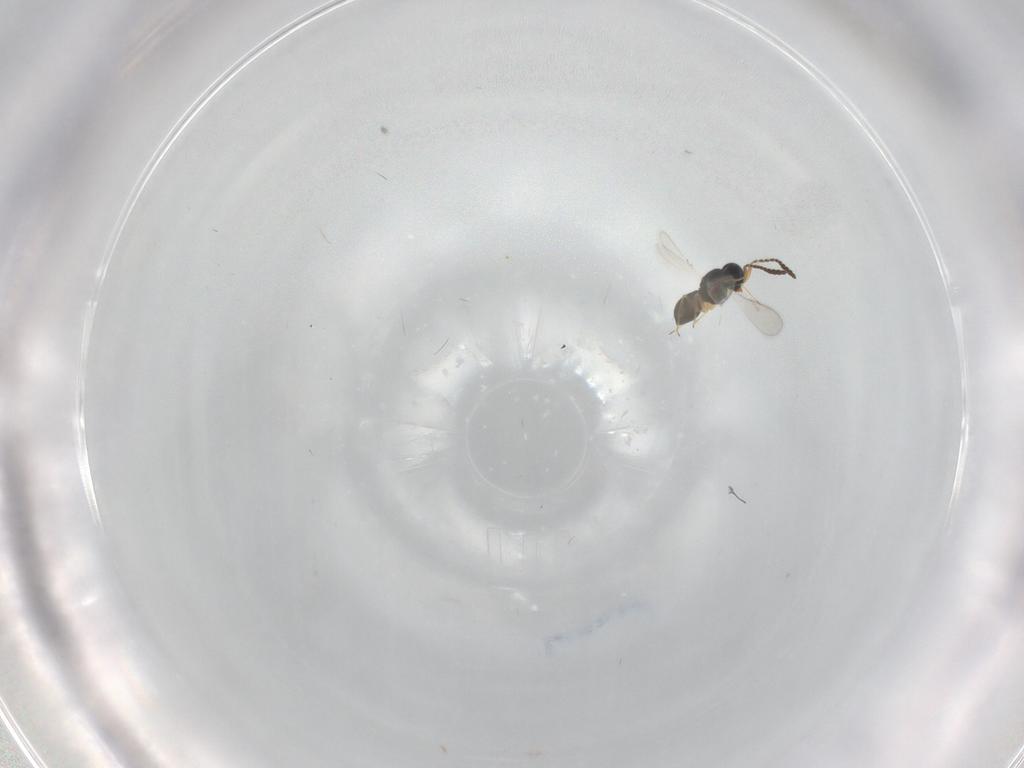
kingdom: Animalia
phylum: Arthropoda
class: Insecta
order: Hymenoptera
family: Scelionidae
